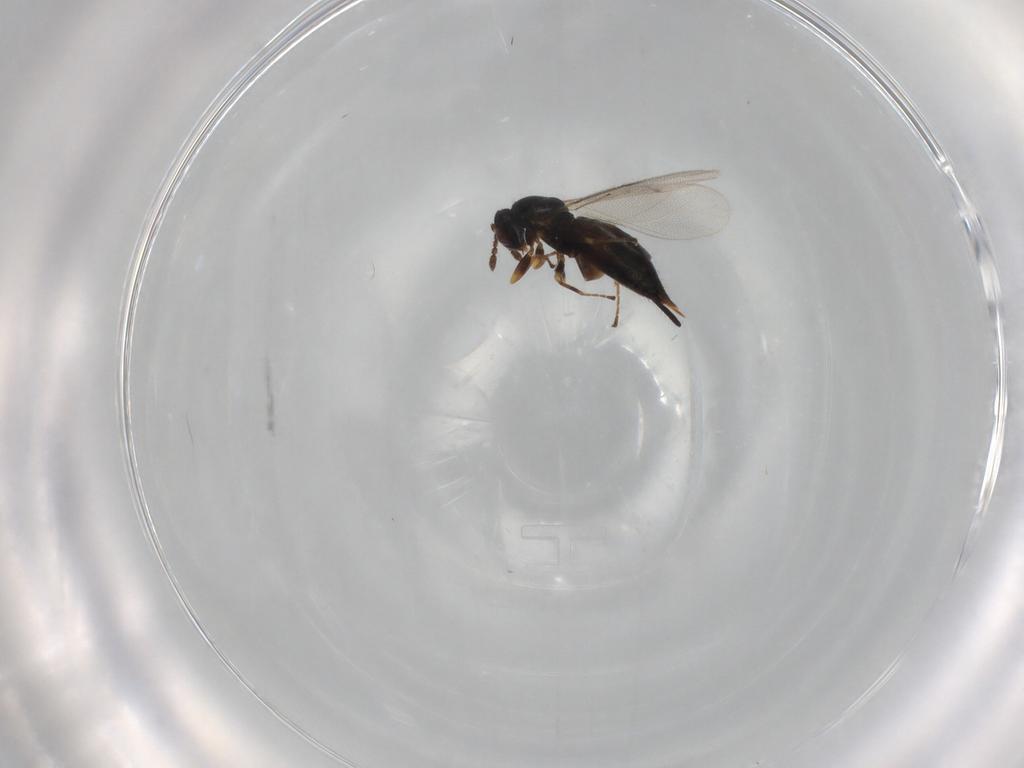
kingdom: Animalia
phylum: Arthropoda
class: Insecta
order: Hymenoptera
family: Eulophidae
